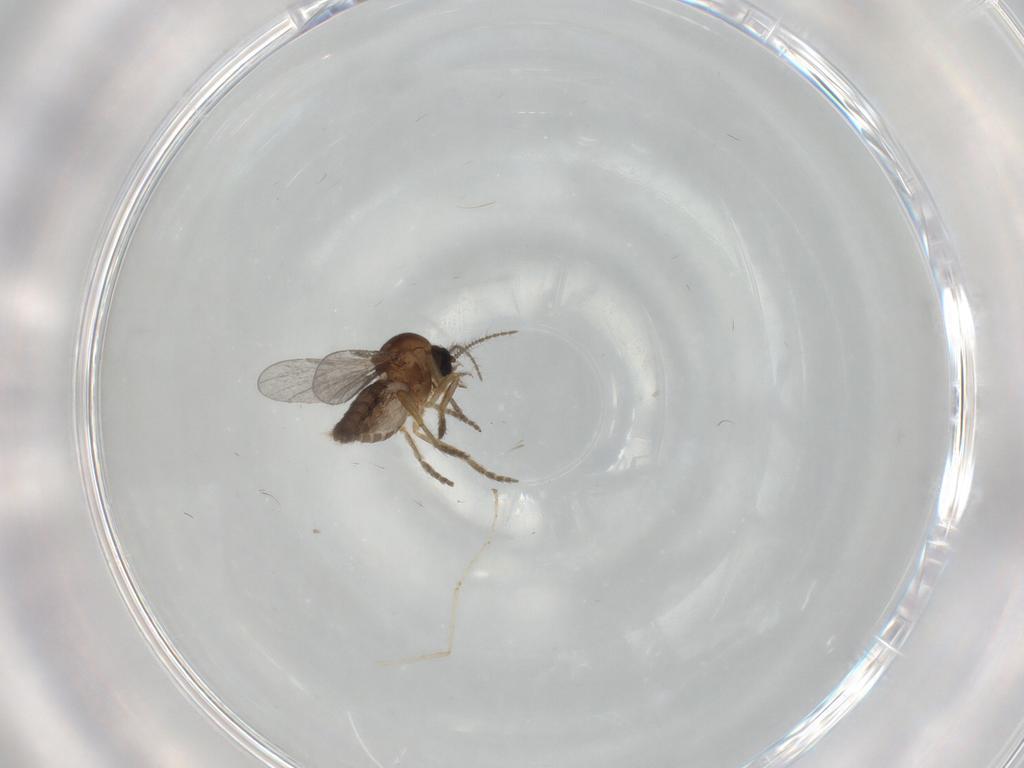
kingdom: Animalia
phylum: Arthropoda
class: Insecta
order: Diptera
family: Ceratopogonidae
